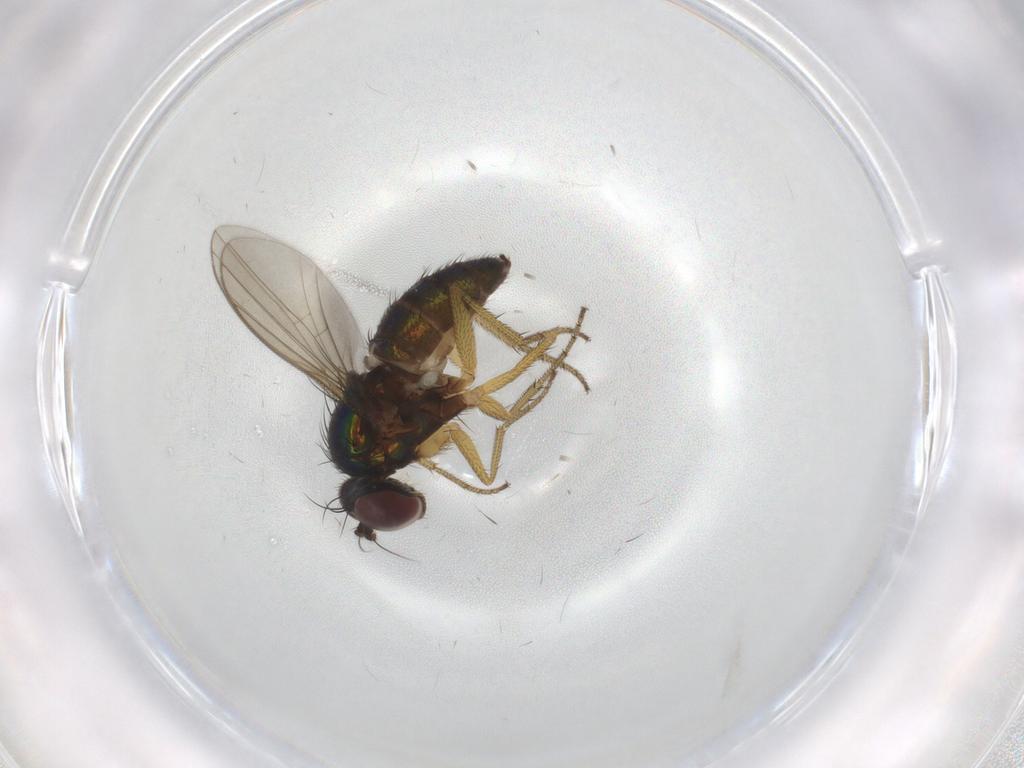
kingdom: Animalia
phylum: Arthropoda
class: Insecta
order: Diptera
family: Dolichopodidae
